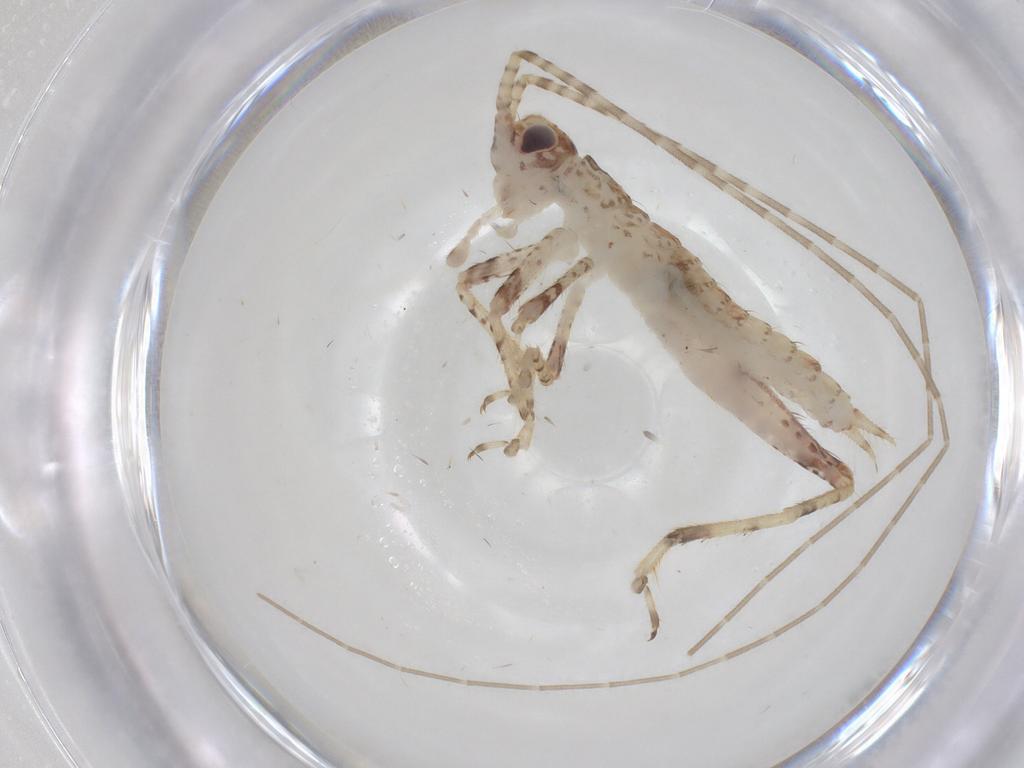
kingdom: Animalia
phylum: Arthropoda
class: Insecta
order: Orthoptera
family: Gryllidae
